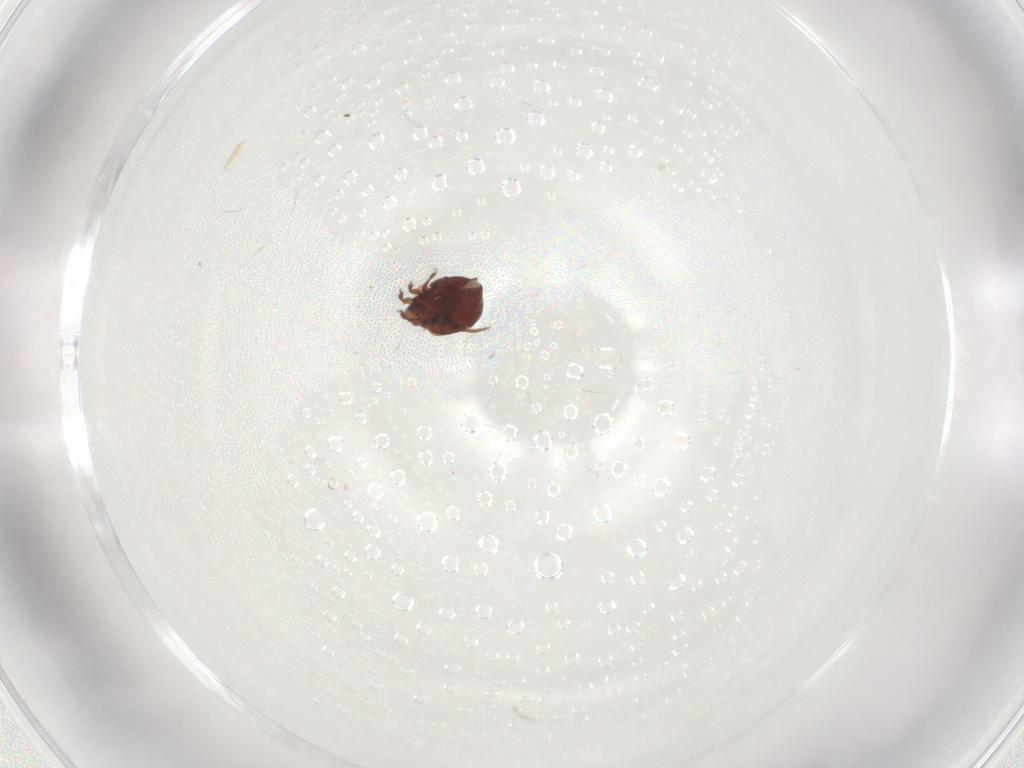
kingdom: Animalia
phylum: Arthropoda
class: Arachnida
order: Sarcoptiformes
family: Humerobatidae
